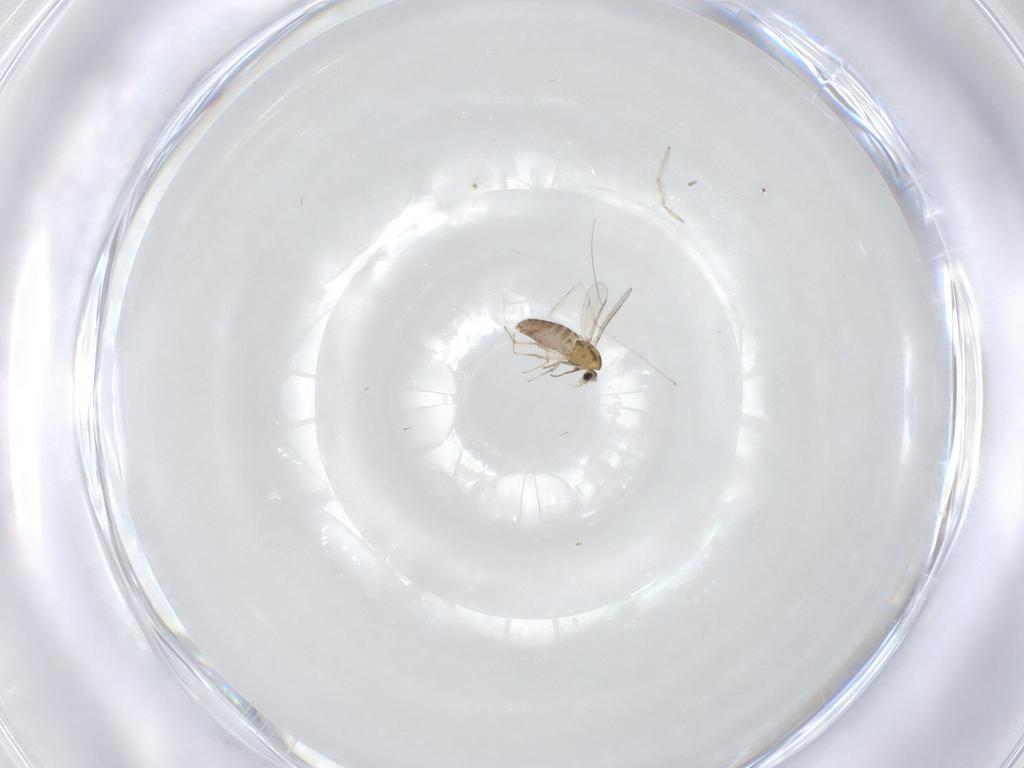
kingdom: Animalia
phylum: Arthropoda
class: Insecta
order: Diptera
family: Chironomidae
